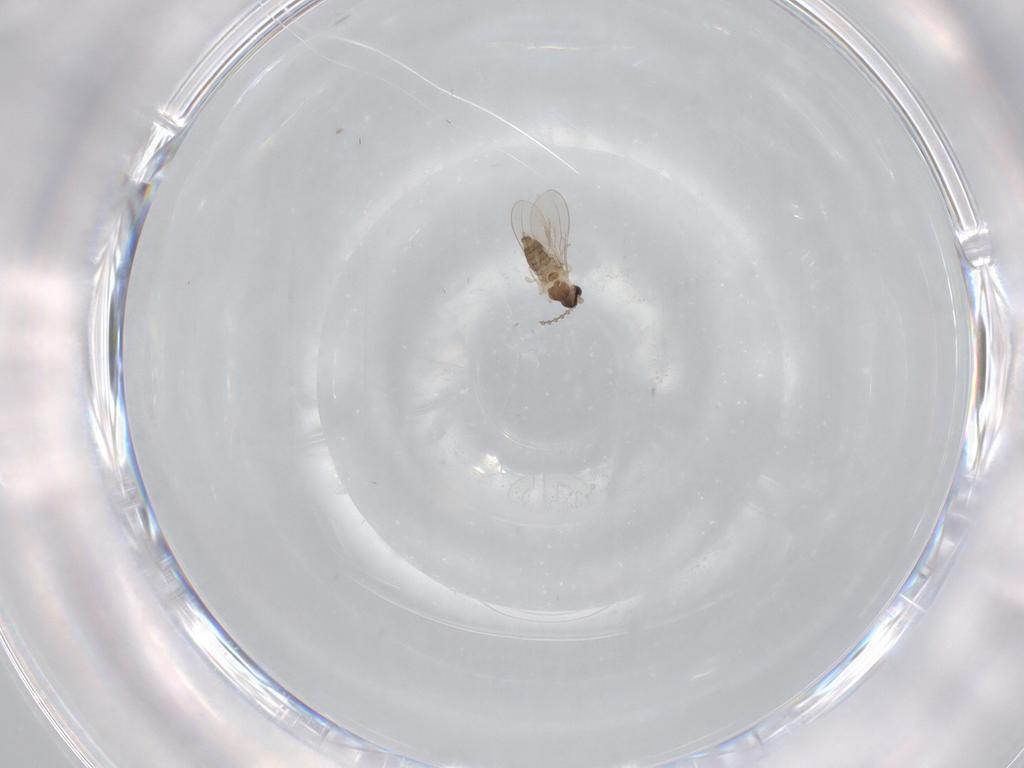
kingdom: Animalia
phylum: Arthropoda
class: Insecta
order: Diptera
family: Cecidomyiidae
